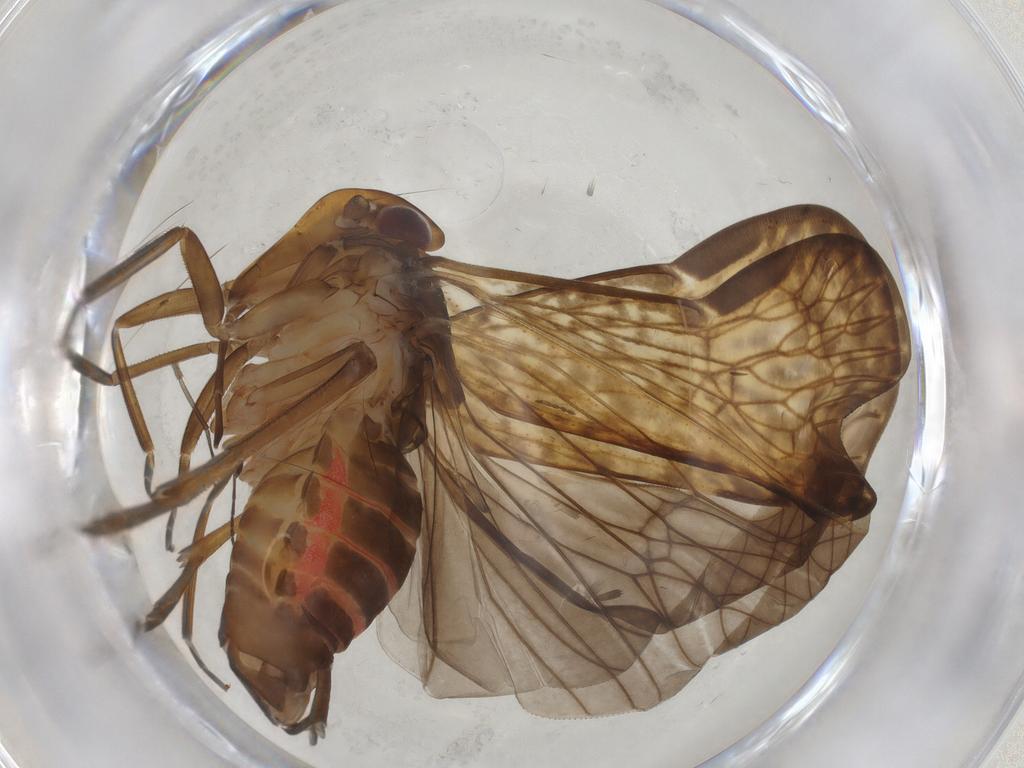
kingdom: Animalia
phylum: Arthropoda
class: Insecta
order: Hemiptera
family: Cixiidae
